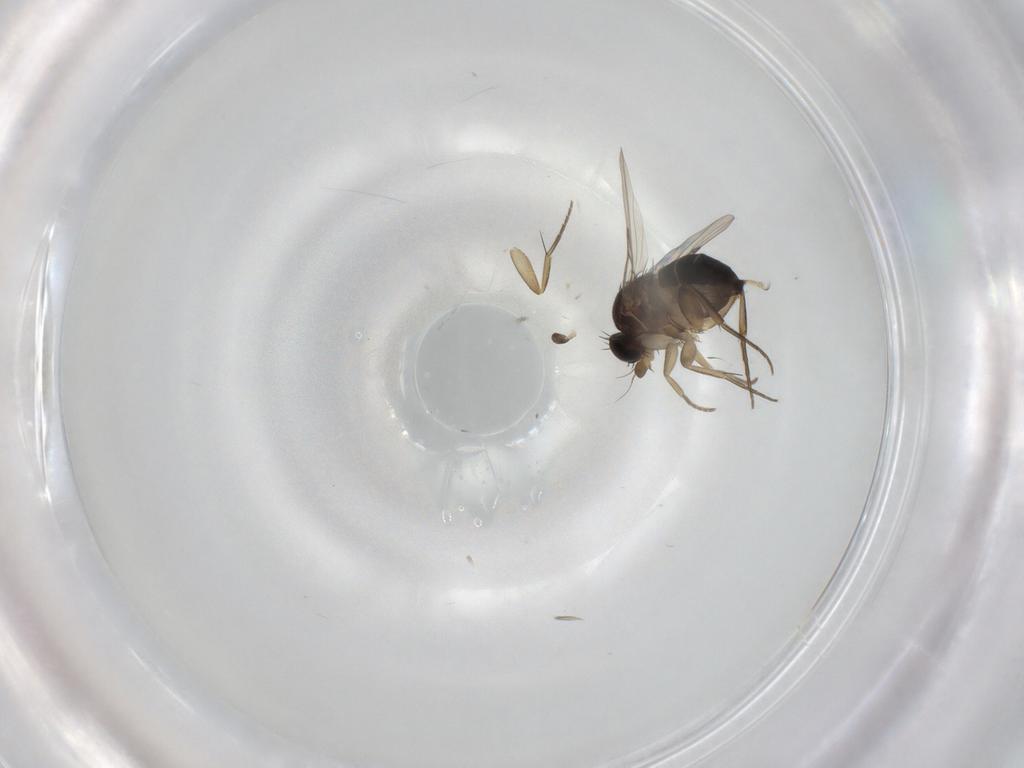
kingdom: Animalia
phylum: Arthropoda
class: Insecta
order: Diptera
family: Phoridae
